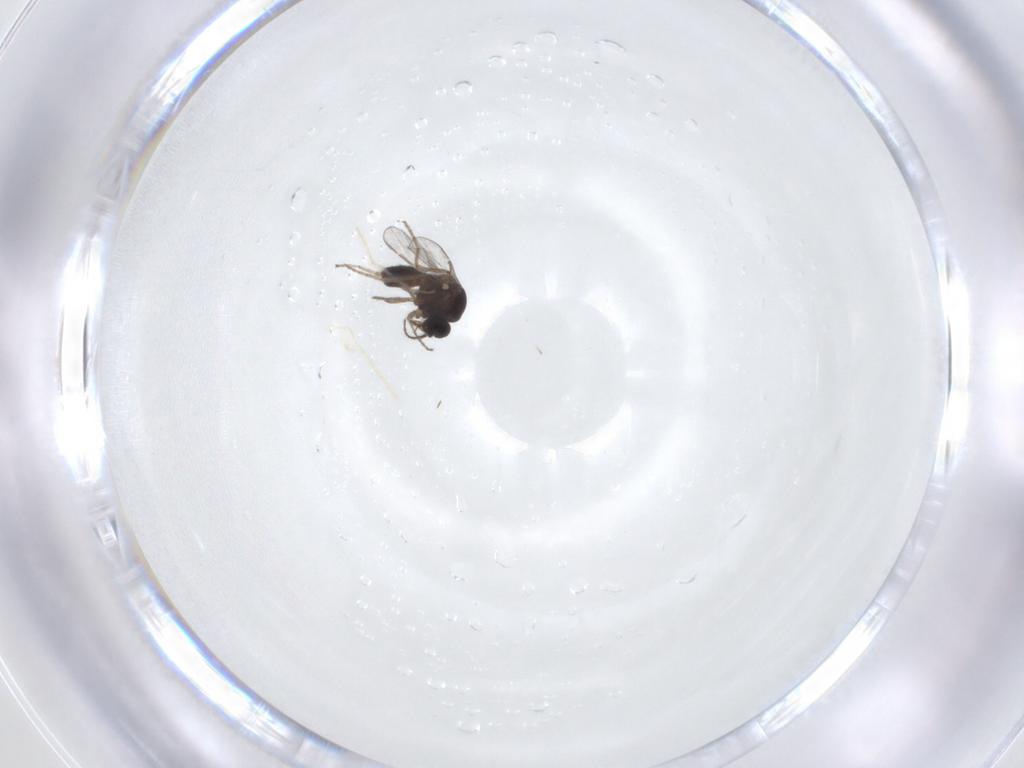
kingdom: Animalia
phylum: Arthropoda
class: Insecta
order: Diptera
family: Ceratopogonidae
